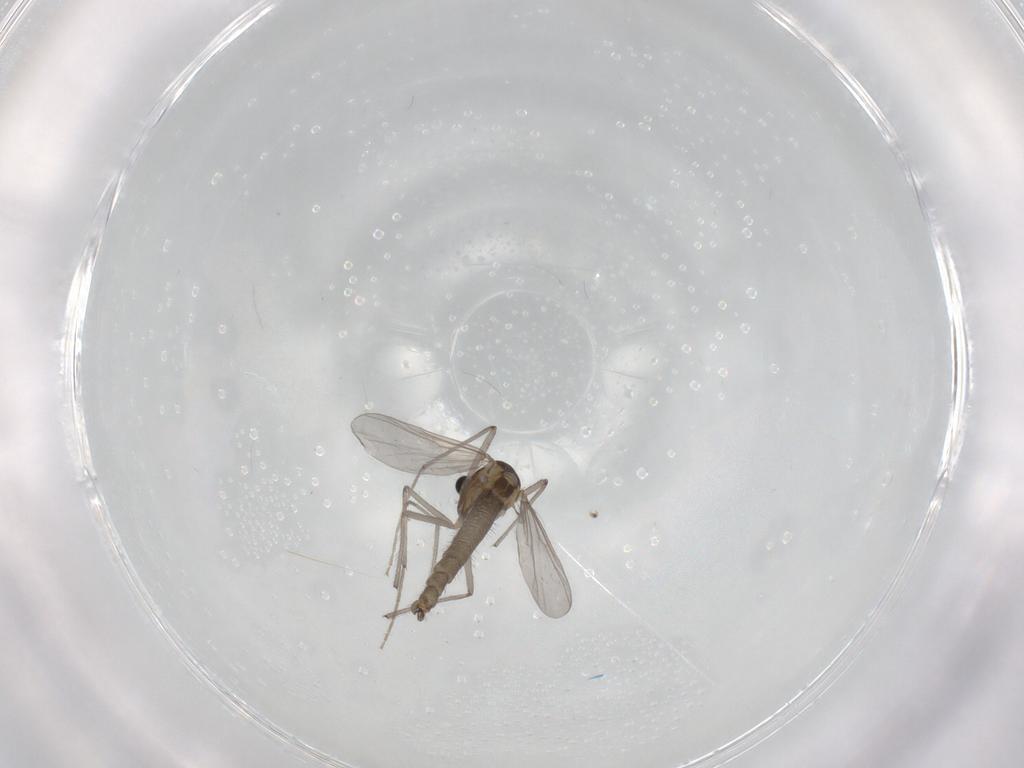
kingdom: Animalia
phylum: Arthropoda
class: Insecta
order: Diptera
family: Chironomidae
